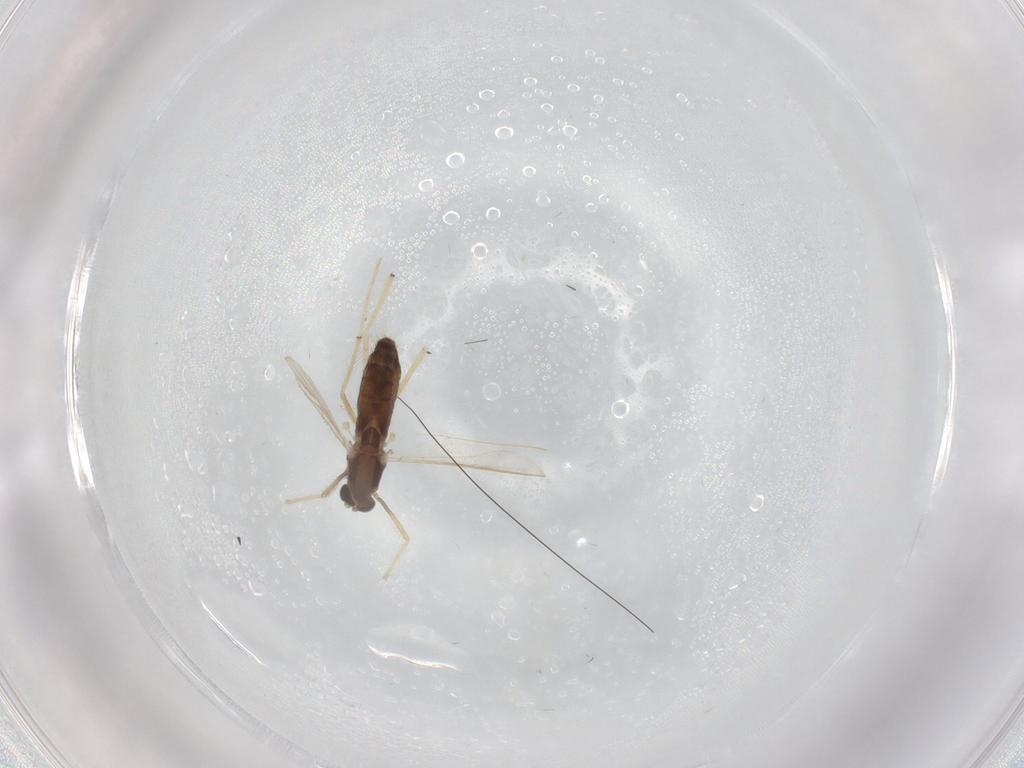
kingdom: Animalia
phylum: Arthropoda
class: Insecta
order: Diptera
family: Chironomidae
